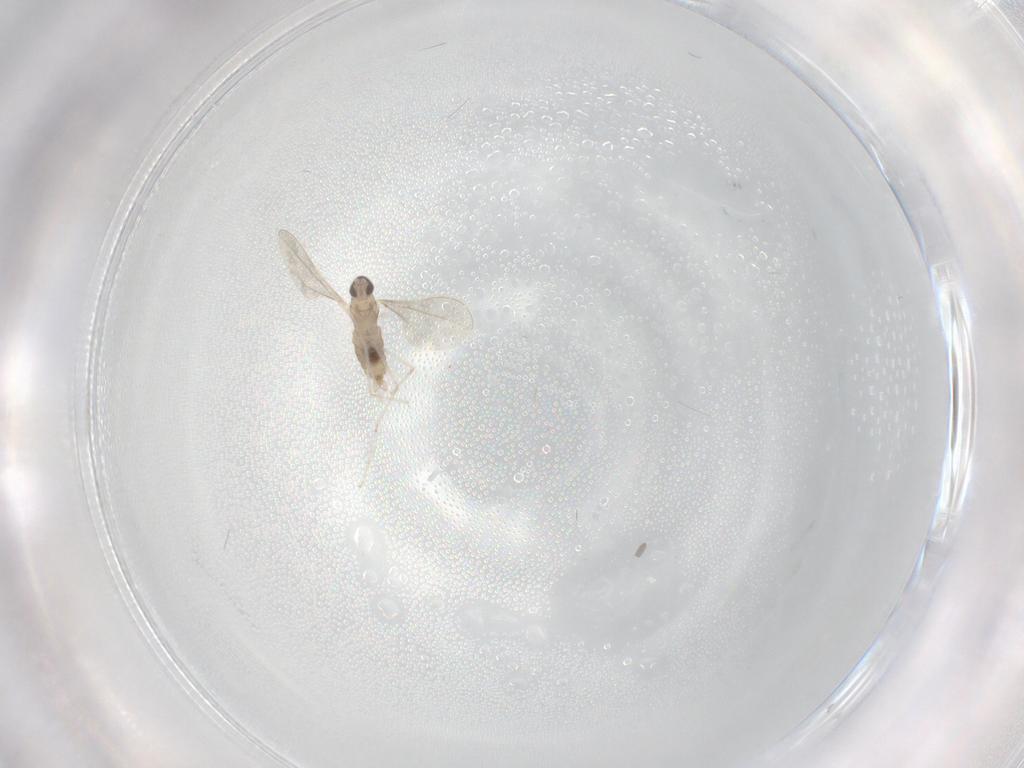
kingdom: Animalia
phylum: Arthropoda
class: Insecta
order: Diptera
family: Cecidomyiidae
